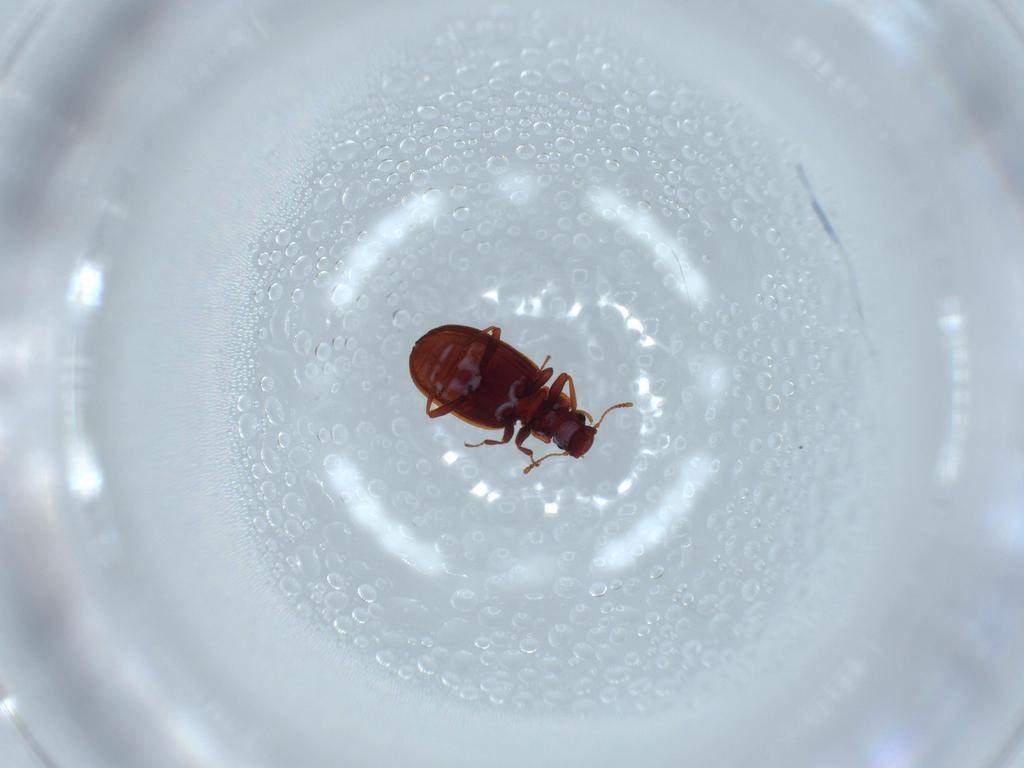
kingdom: Animalia
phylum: Arthropoda
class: Insecta
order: Coleoptera
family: Latridiidae
